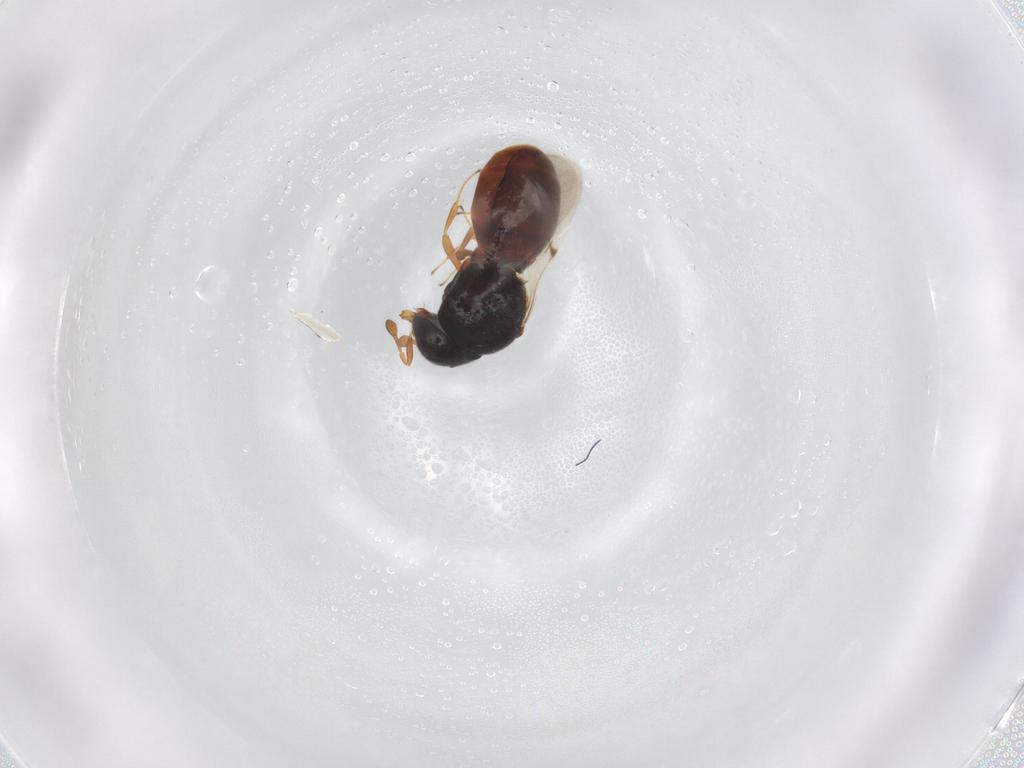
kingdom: Animalia
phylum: Arthropoda
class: Insecta
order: Hymenoptera
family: Scelionidae
